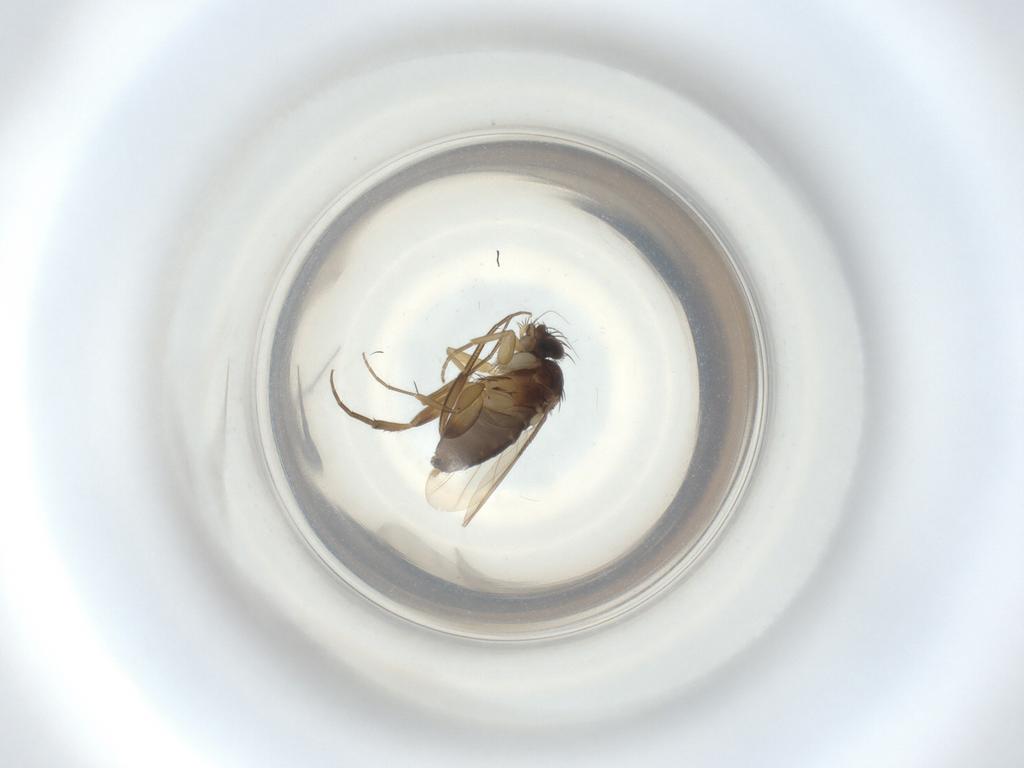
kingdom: Animalia
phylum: Arthropoda
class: Insecta
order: Diptera
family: Phoridae
